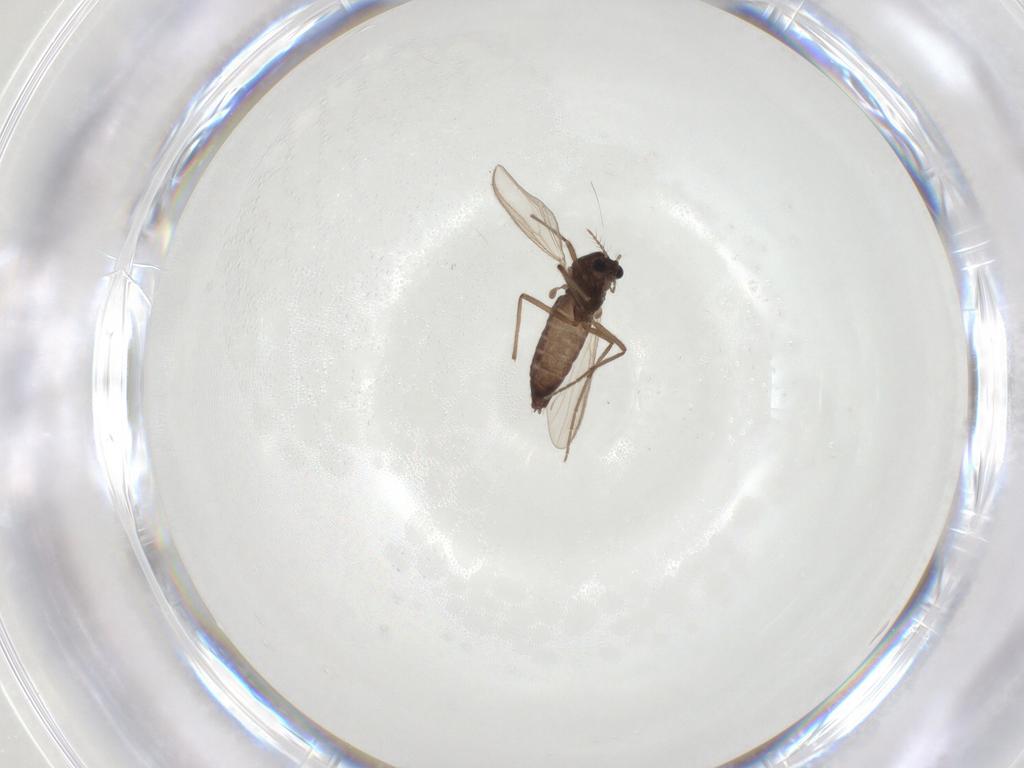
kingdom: Animalia
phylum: Arthropoda
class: Insecta
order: Diptera
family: Chironomidae
